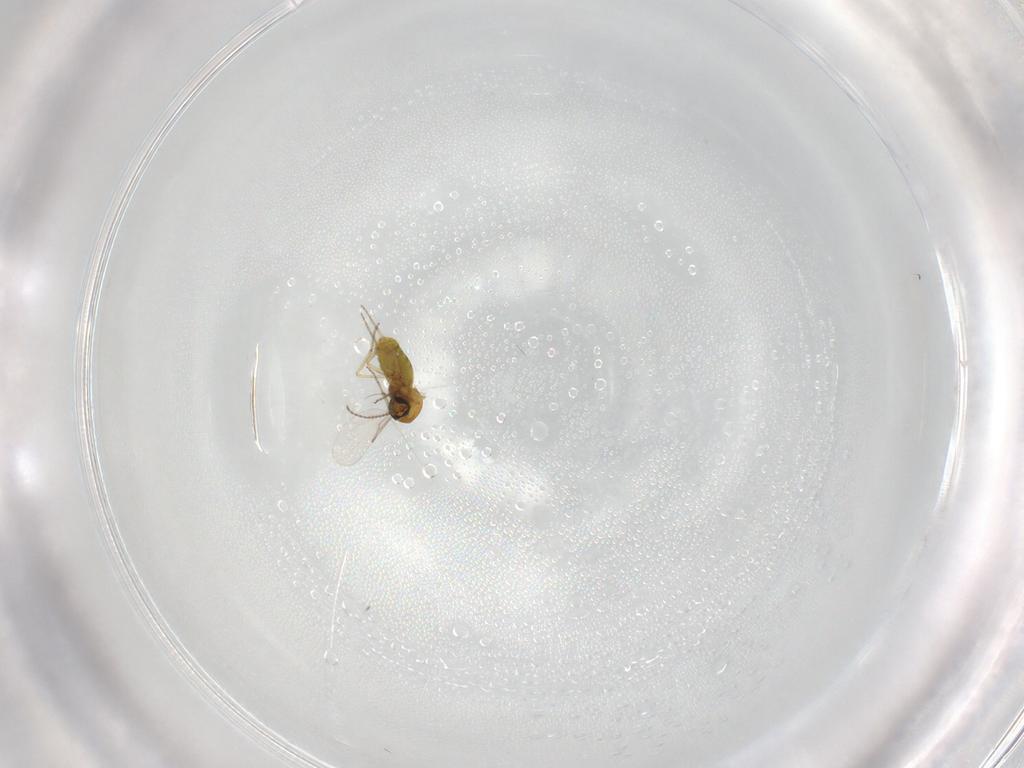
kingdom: Animalia
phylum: Arthropoda
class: Insecta
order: Diptera
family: Ceratopogonidae
